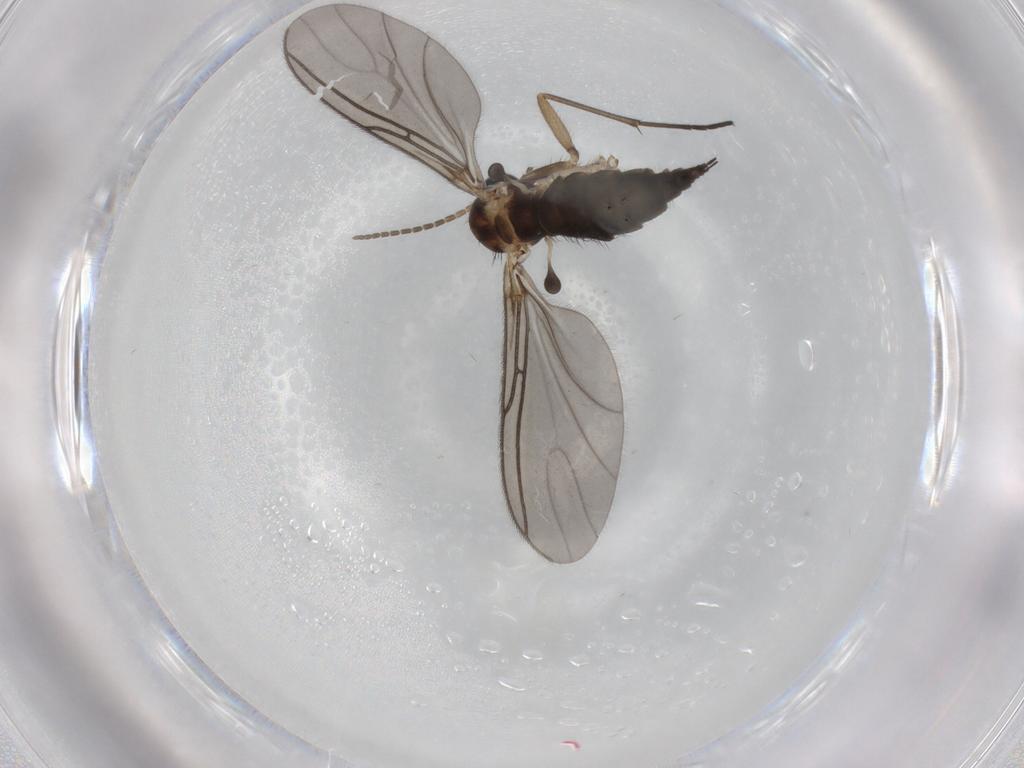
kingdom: Animalia
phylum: Arthropoda
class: Insecta
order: Diptera
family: Ceratopogonidae
